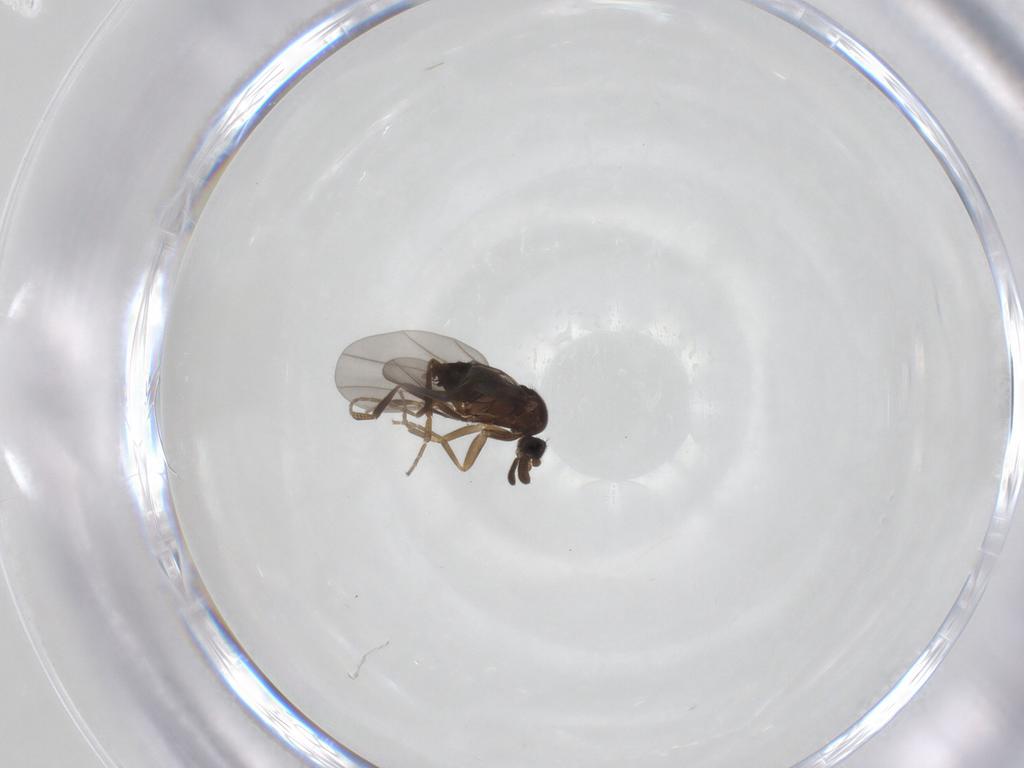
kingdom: Animalia
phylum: Arthropoda
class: Insecta
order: Diptera
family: Phoridae
